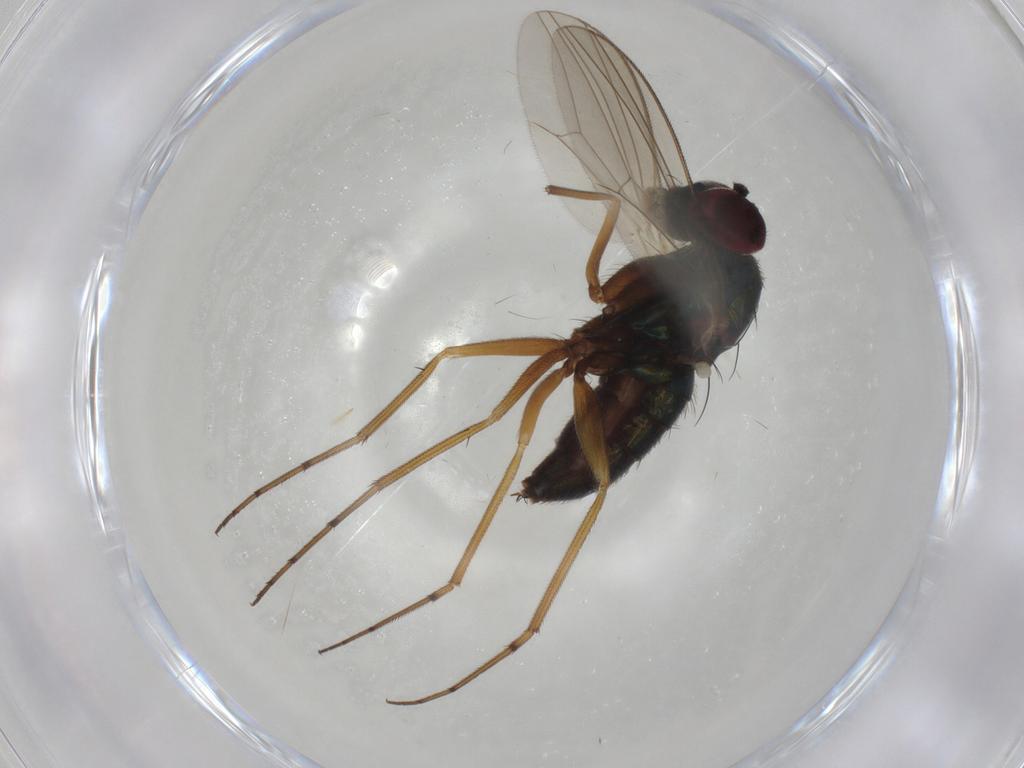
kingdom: Animalia
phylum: Arthropoda
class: Insecta
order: Diptera
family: Dolichopodidae
